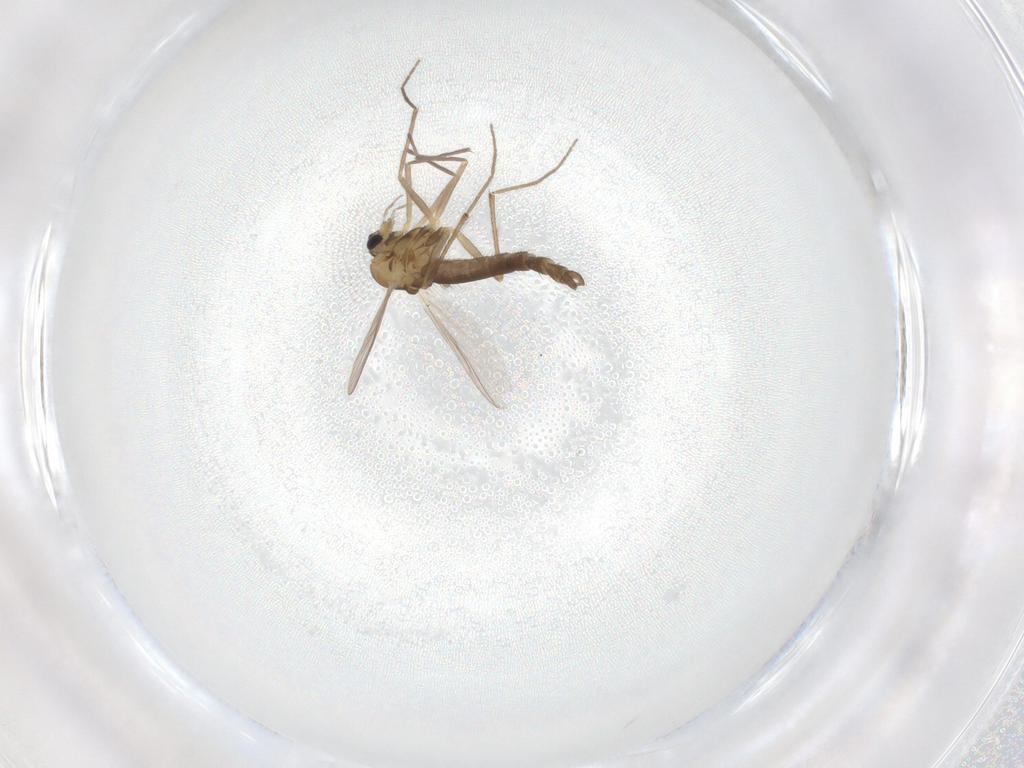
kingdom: Animalia
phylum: Arthropoda
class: Insecta
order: Diptera
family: Chironomidae
